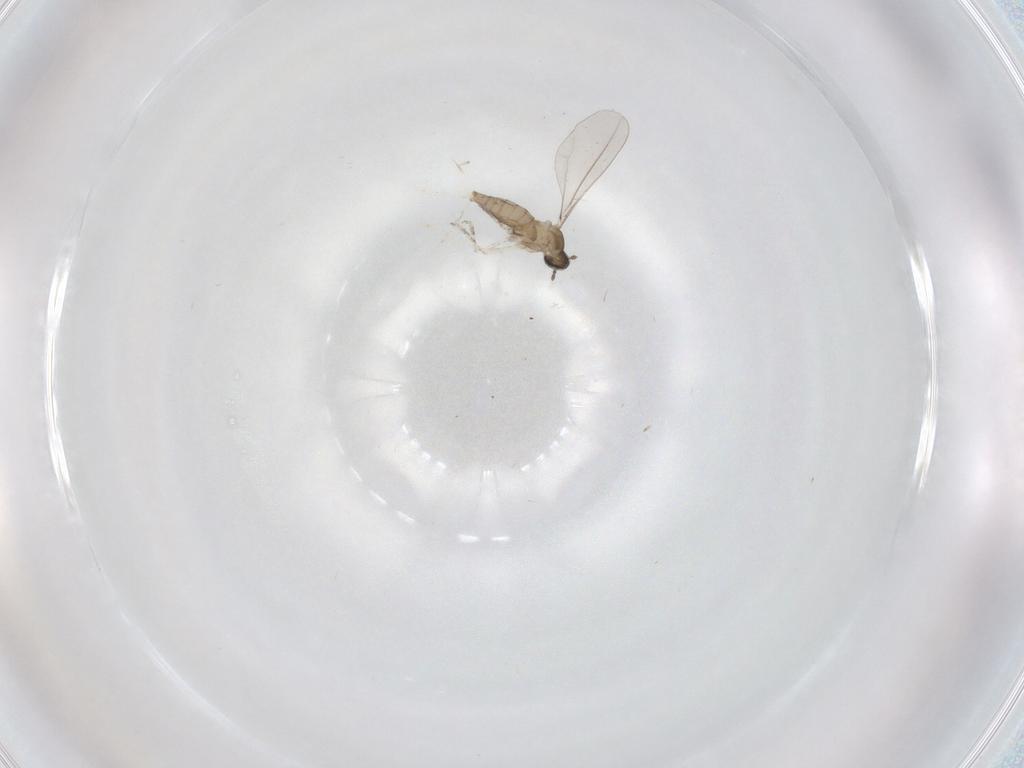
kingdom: Animalia
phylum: Arthropoda
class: Insecta
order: Diptera
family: Cecidomyiidae
